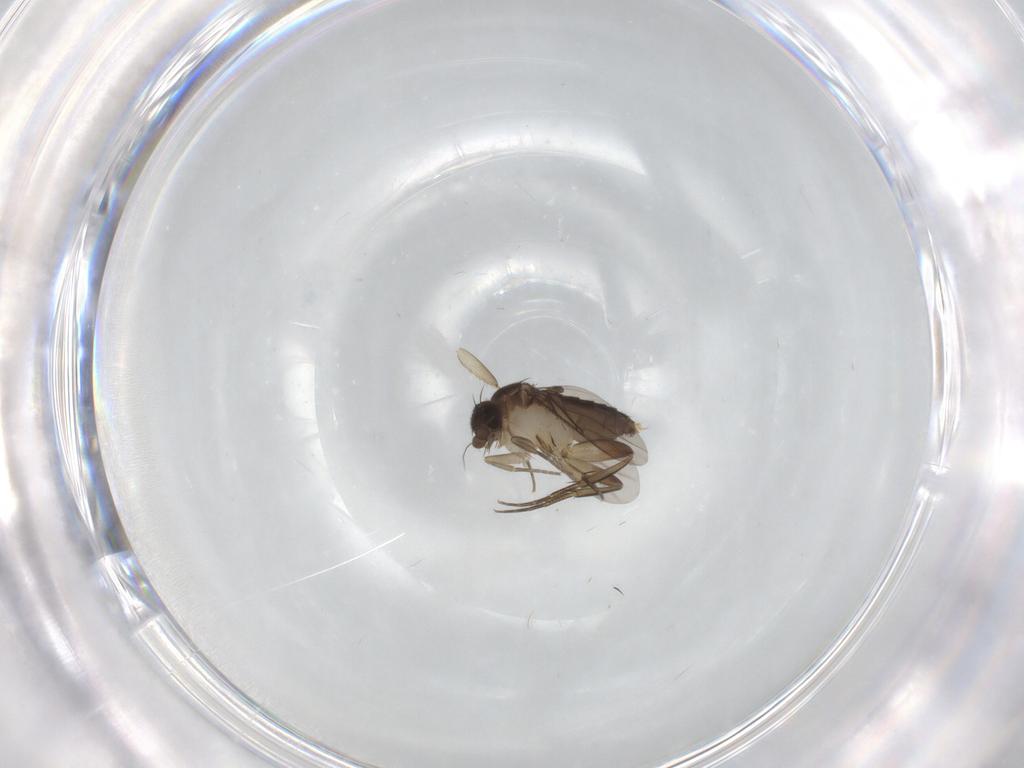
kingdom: Animalia
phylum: Arthropoda
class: Insecta
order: Diptera
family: Phoridae
